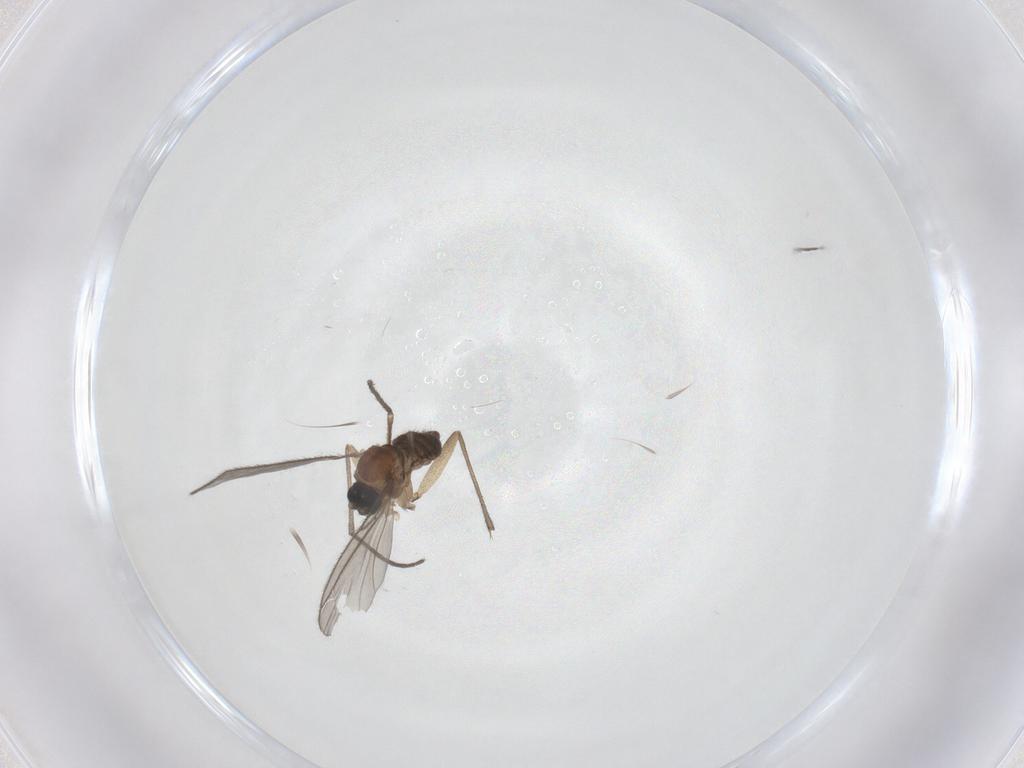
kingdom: Animalia
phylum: Arthropoda
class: Insecta
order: Diptera
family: Sciaridae
